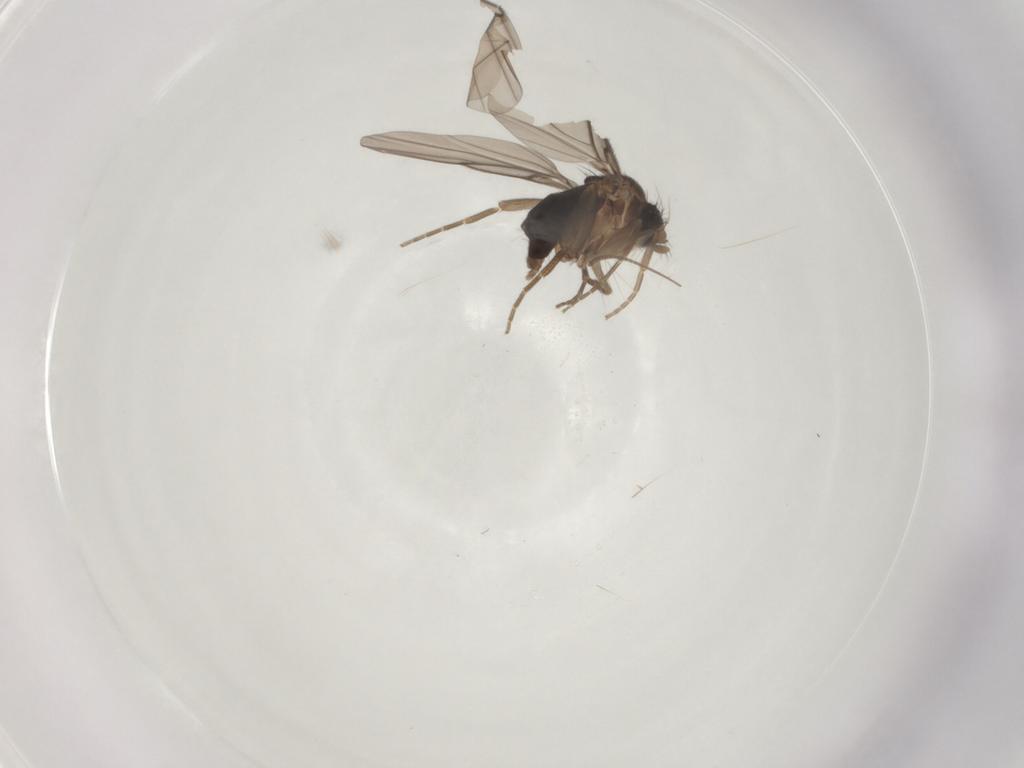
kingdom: Animalia
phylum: Arthropoda
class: Insecta
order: Diptera
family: Phoridae
